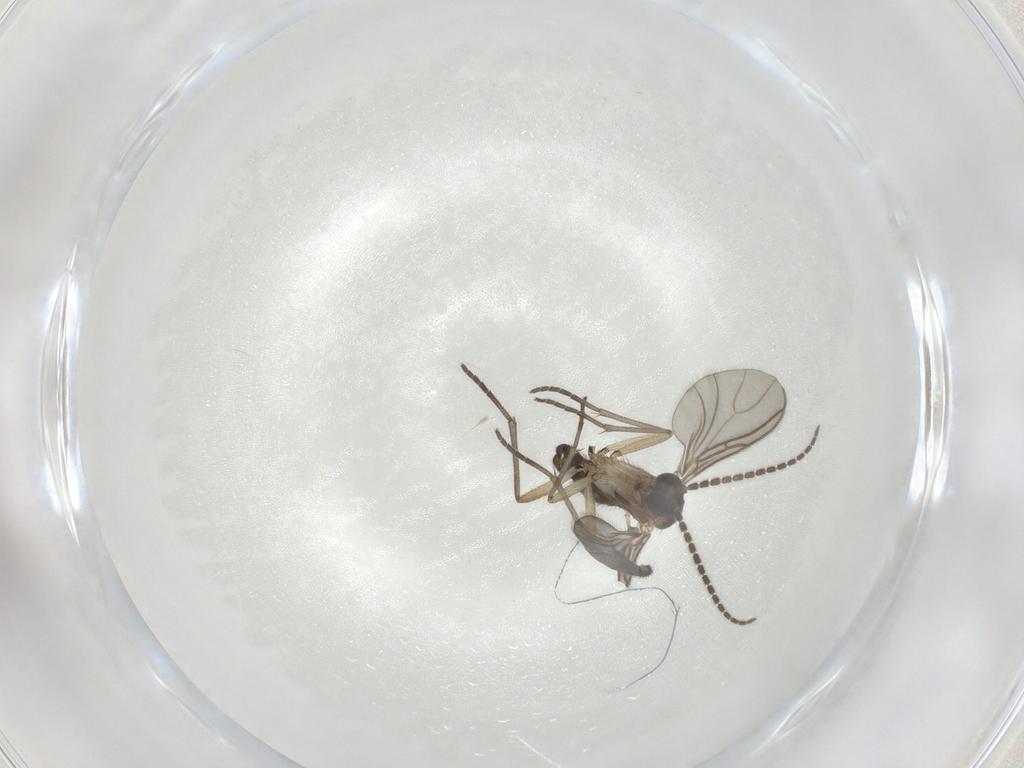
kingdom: Animalia
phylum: Arthropoda
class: Insecta
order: Diptera
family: Sciaridae
